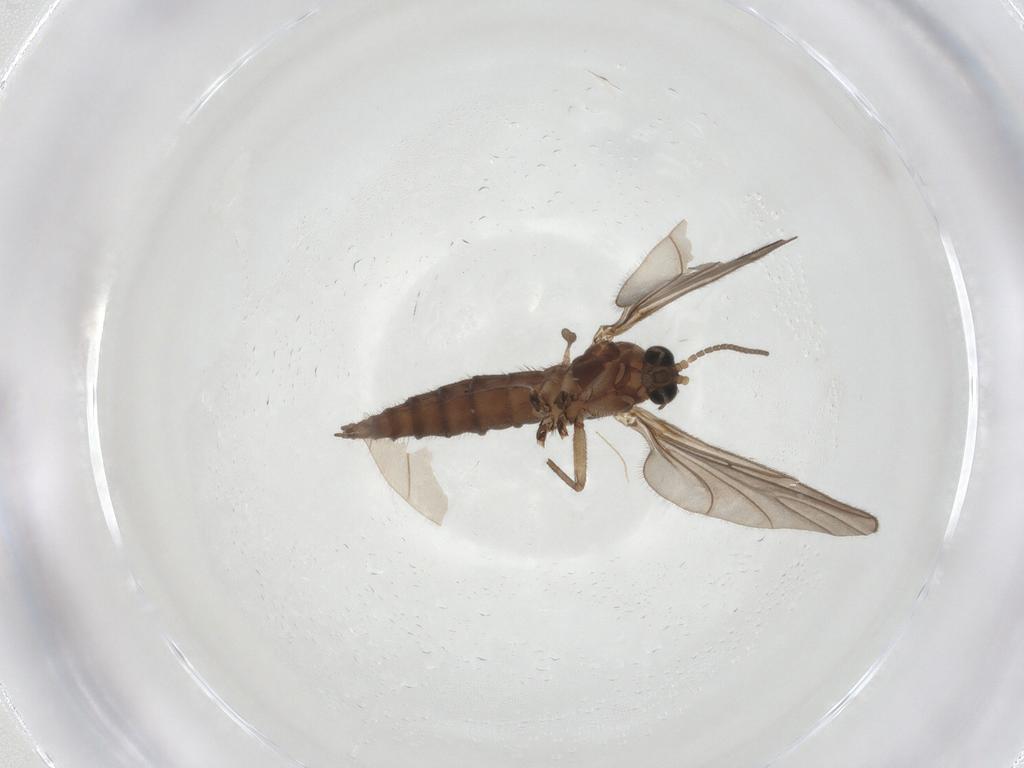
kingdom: Animalia
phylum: Arthropoda
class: Insecta
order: Diptera
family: Sciaridae
